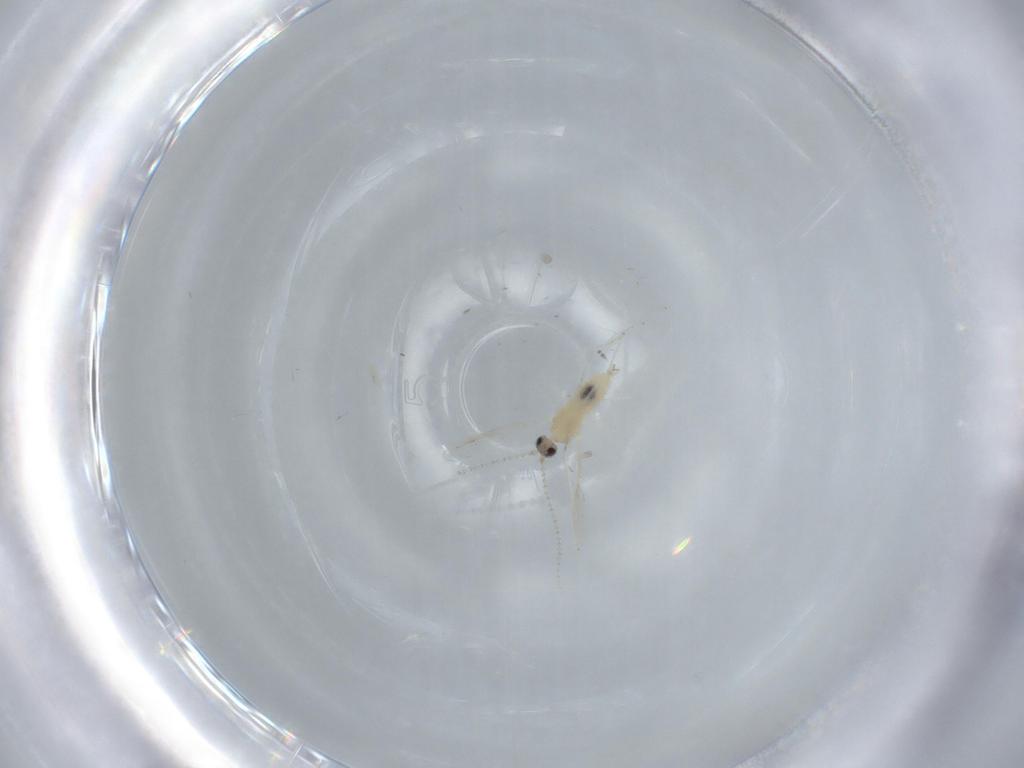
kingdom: Animalia
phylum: Arthropoda
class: Insecta
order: Diptera
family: Cecidomyiidae
